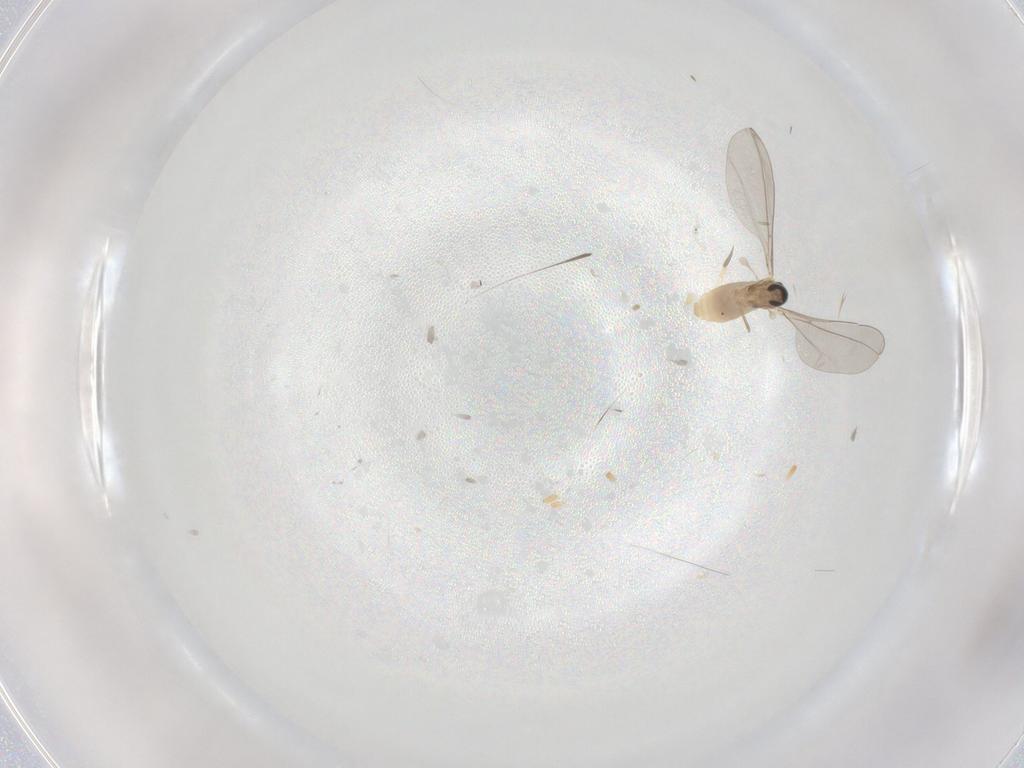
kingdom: Animalia
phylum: Arthropoda
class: Insecta
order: Diptera
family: Cecidomyiidae
